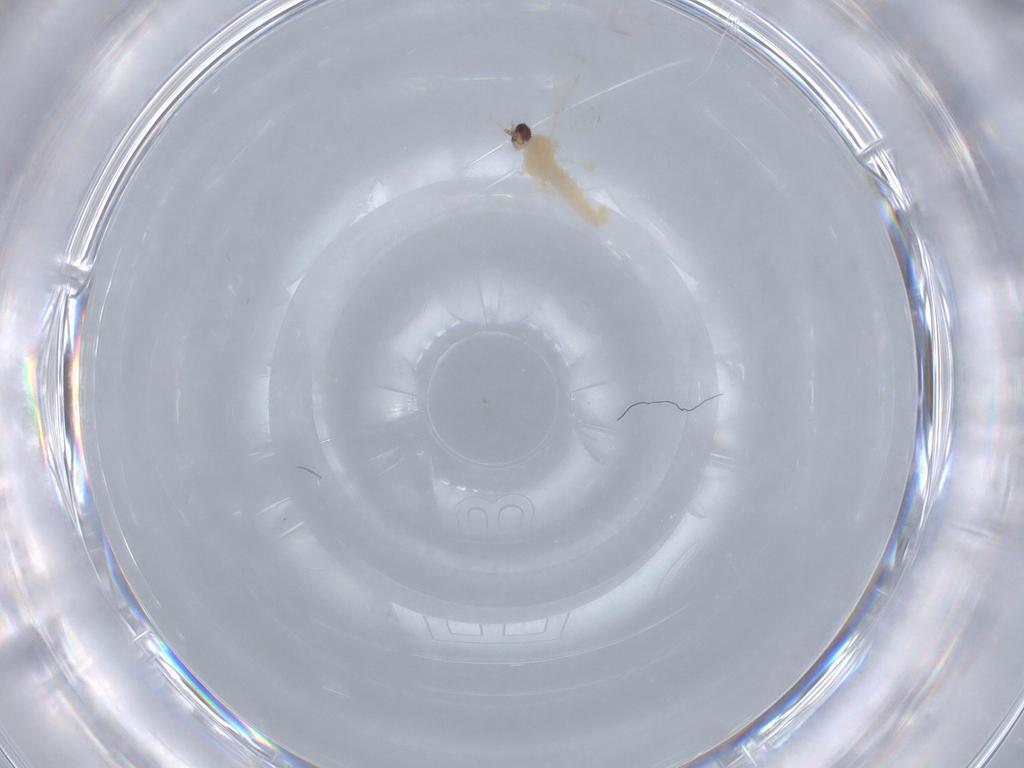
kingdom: Animalia
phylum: Arthropoda
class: Insecta
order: Diptera
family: Cecidomyiidae
